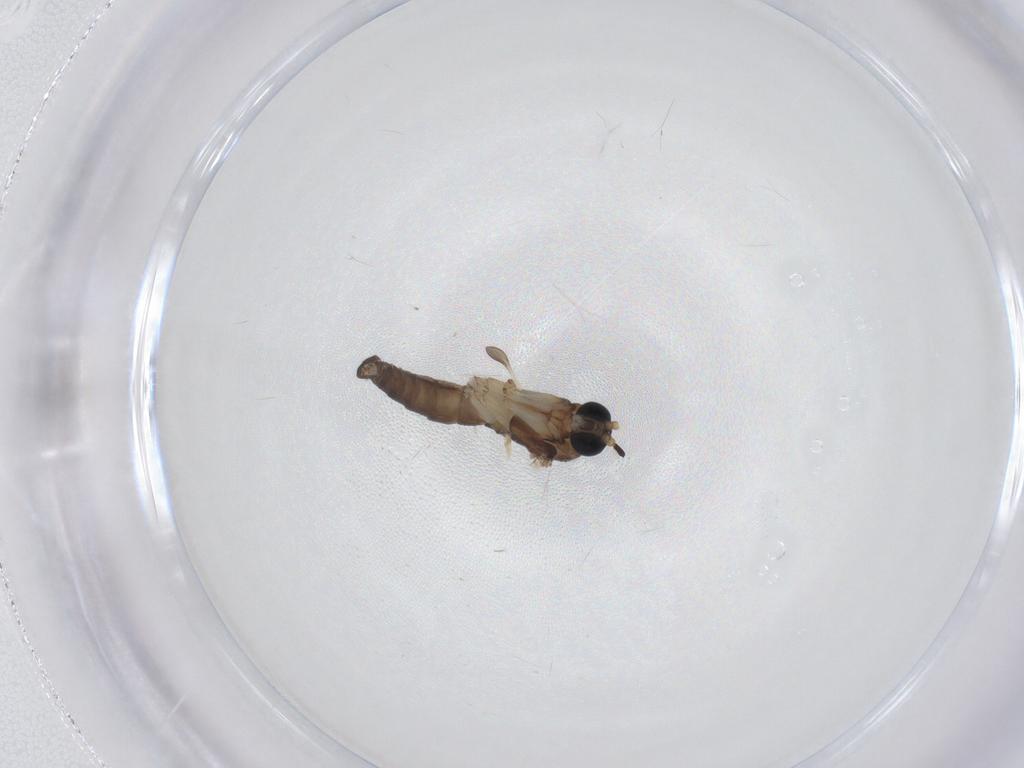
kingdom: Animalia
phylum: Arthropoda
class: Insecta
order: Diptera
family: Sciaridae
